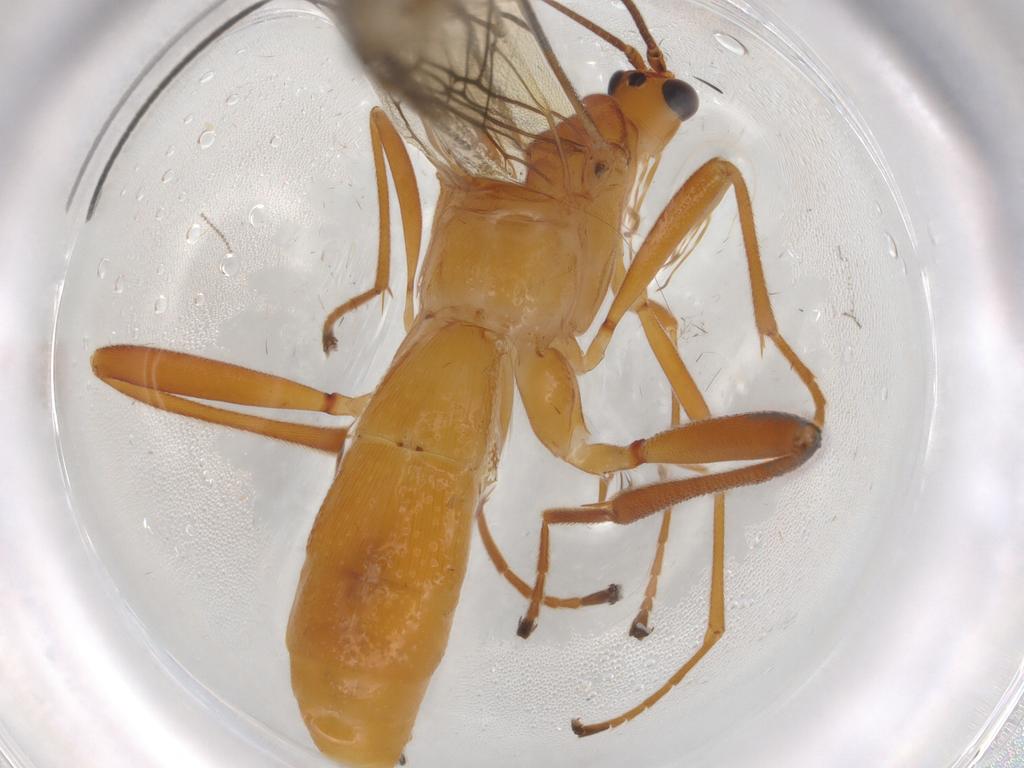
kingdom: Animalia
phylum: Arthropoda
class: Insecta
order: Hymenoptera
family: Braconidae
